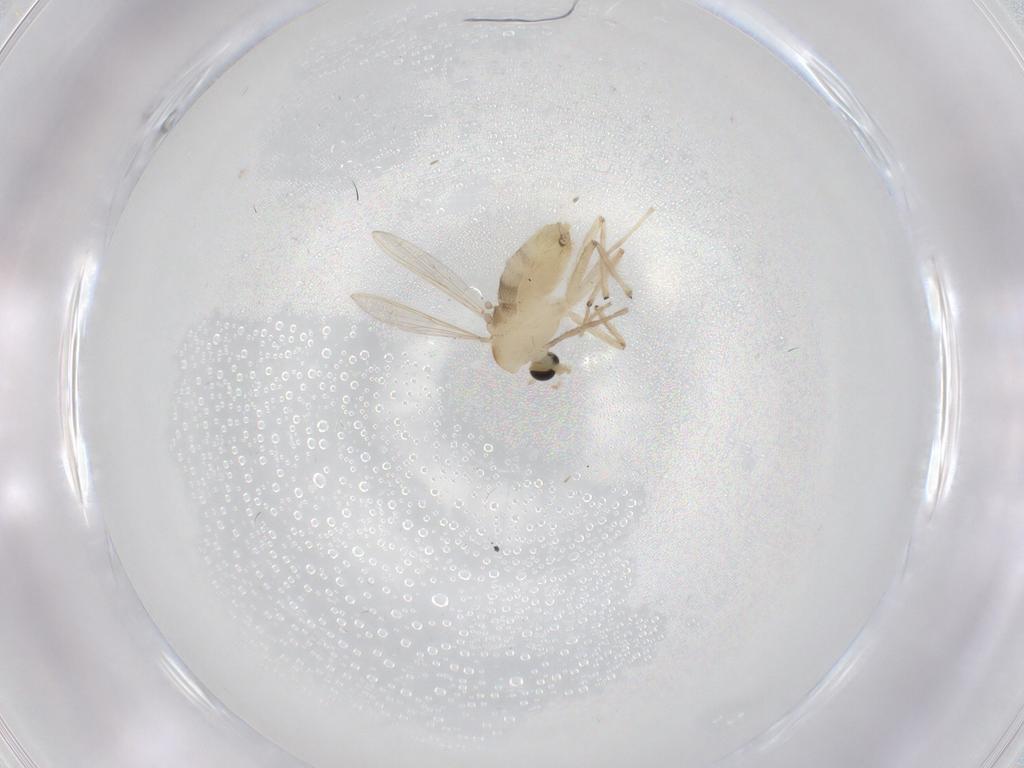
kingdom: Animalia
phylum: Arthropoda
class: Insecta
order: Diptera
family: Ceratopogonidae
